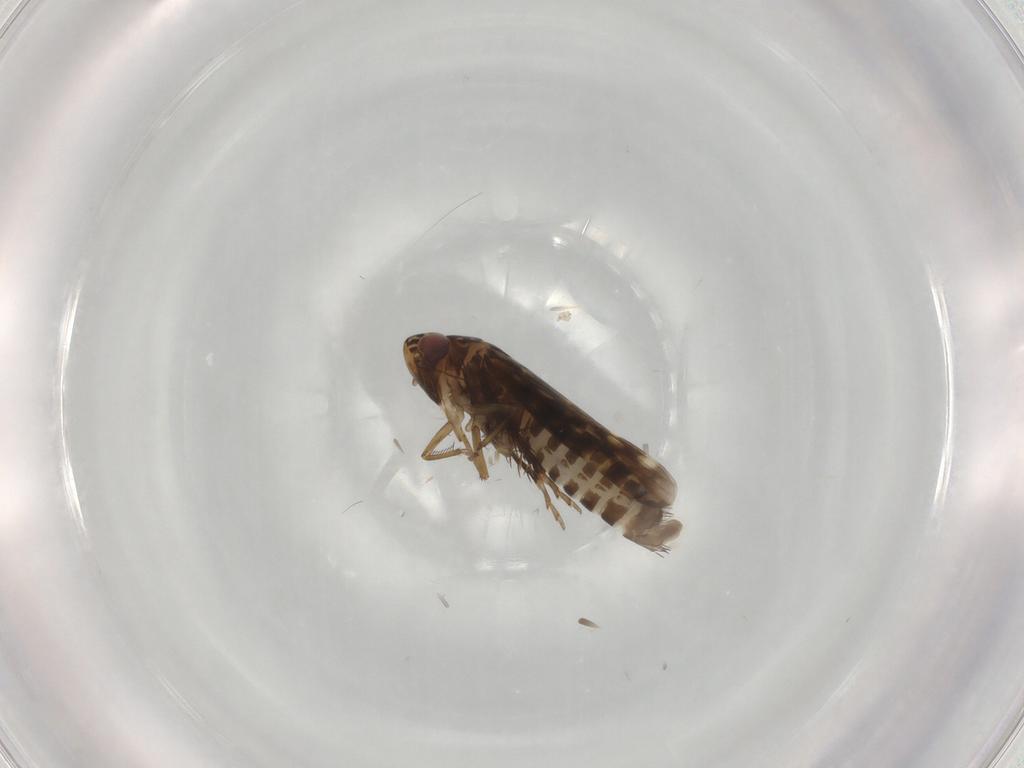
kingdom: Animalia
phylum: Arthropoda
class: Insecta
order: Hemiptera
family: Cicadellidae
